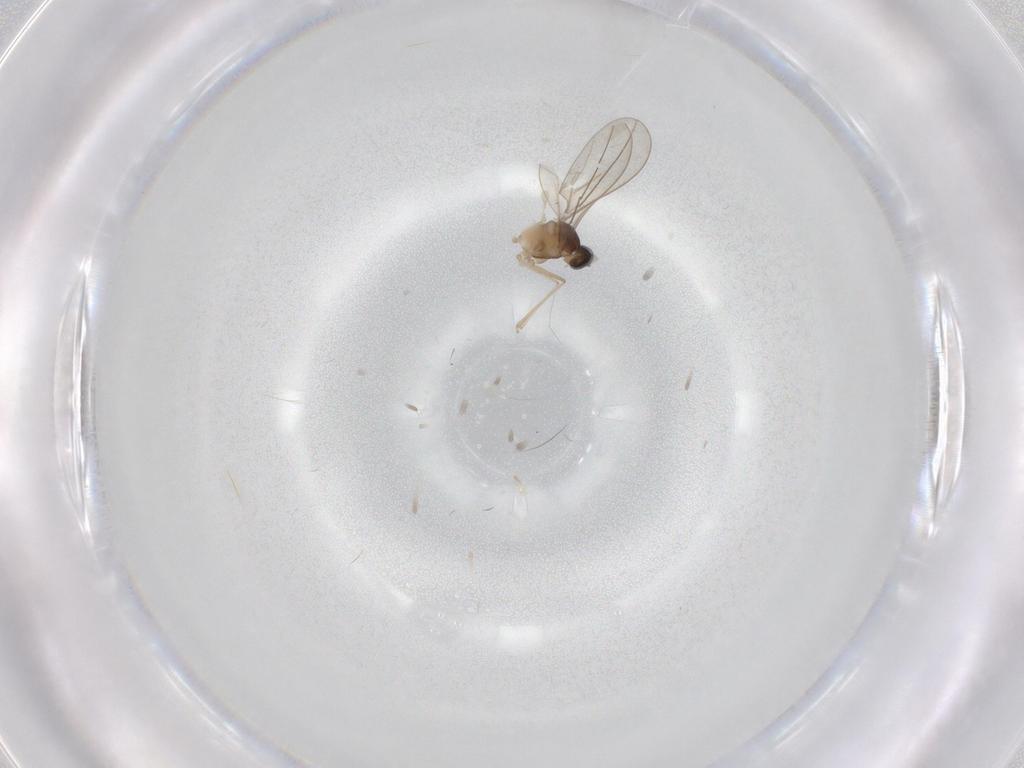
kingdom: Animalia
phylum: Arthropoda
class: Insecta
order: Diptera
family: Cecidomyiidae
